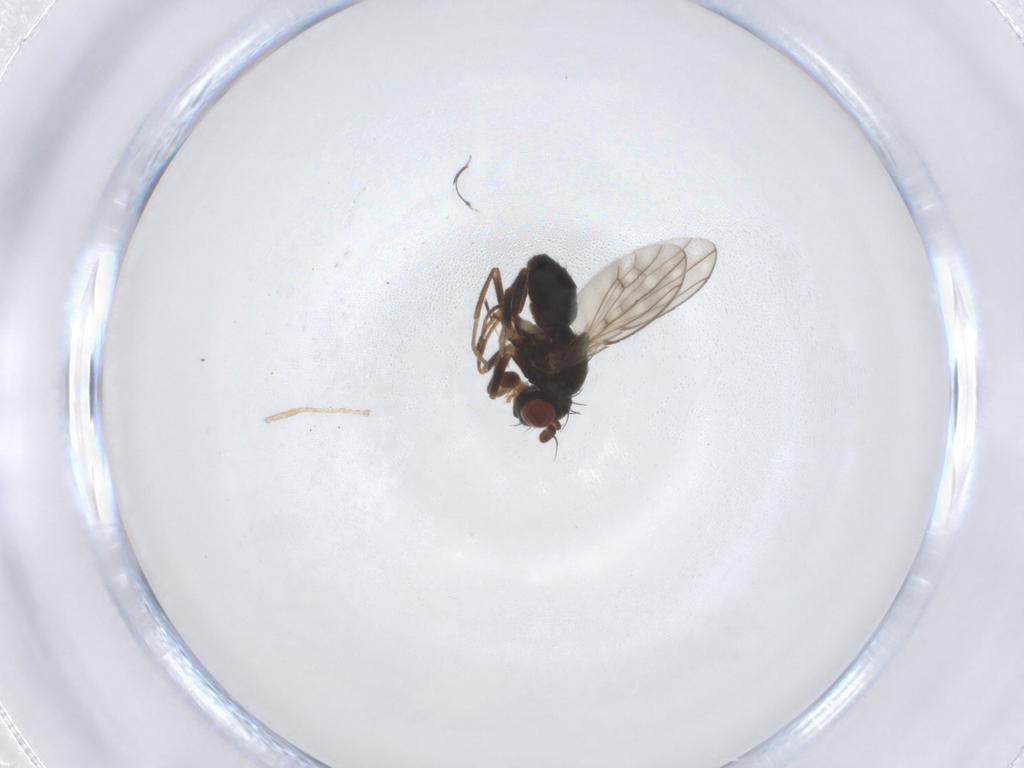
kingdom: Animalia
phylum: Arthropoda
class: Insecta
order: Diptera
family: Ephydridae
